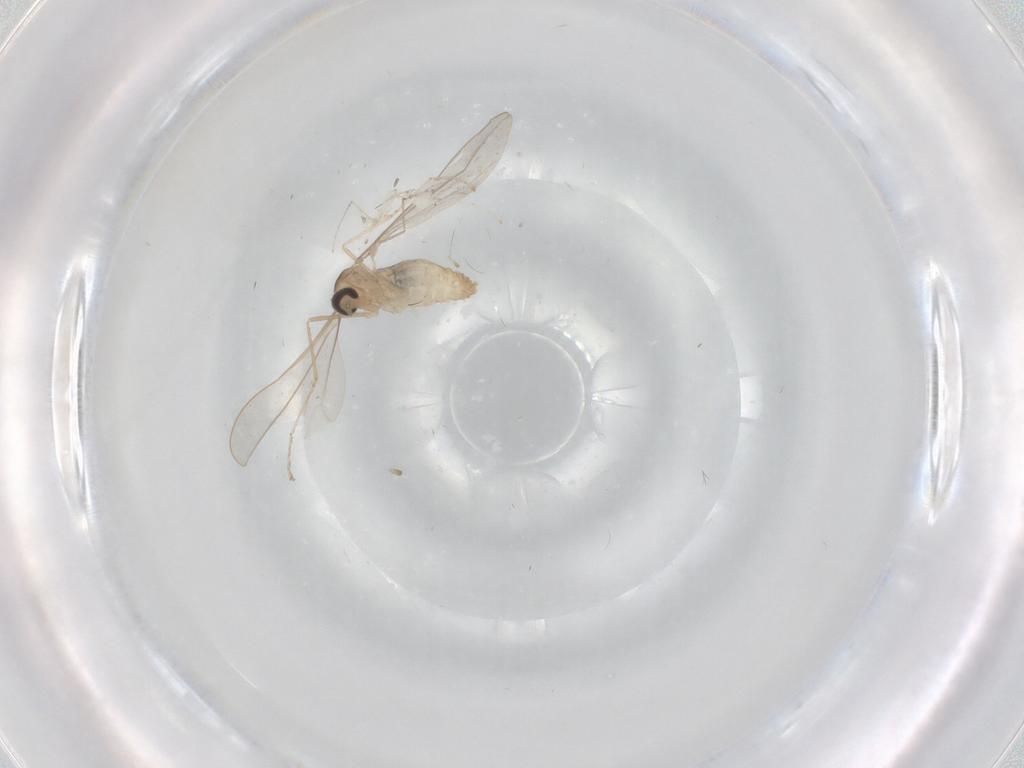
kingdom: Animalia
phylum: Arthropoda
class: Insecta
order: Diptera
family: Cecidomyiidae
